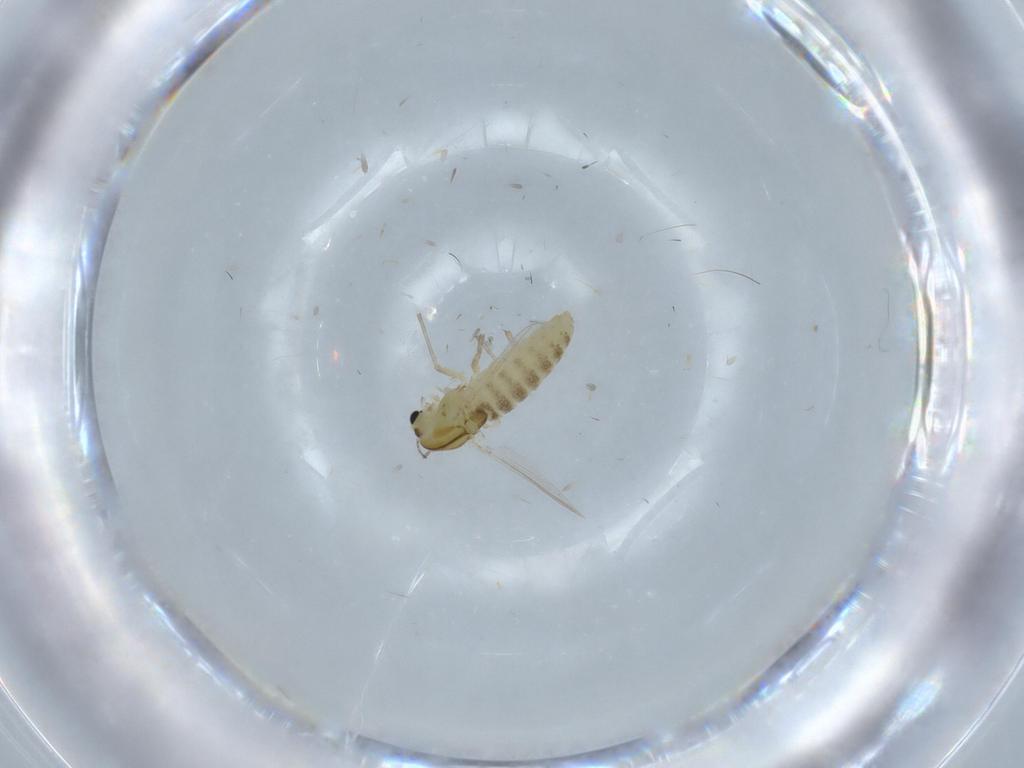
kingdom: Animalia
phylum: Arthropoda
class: Insecta
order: Diptera
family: Chironomidae
